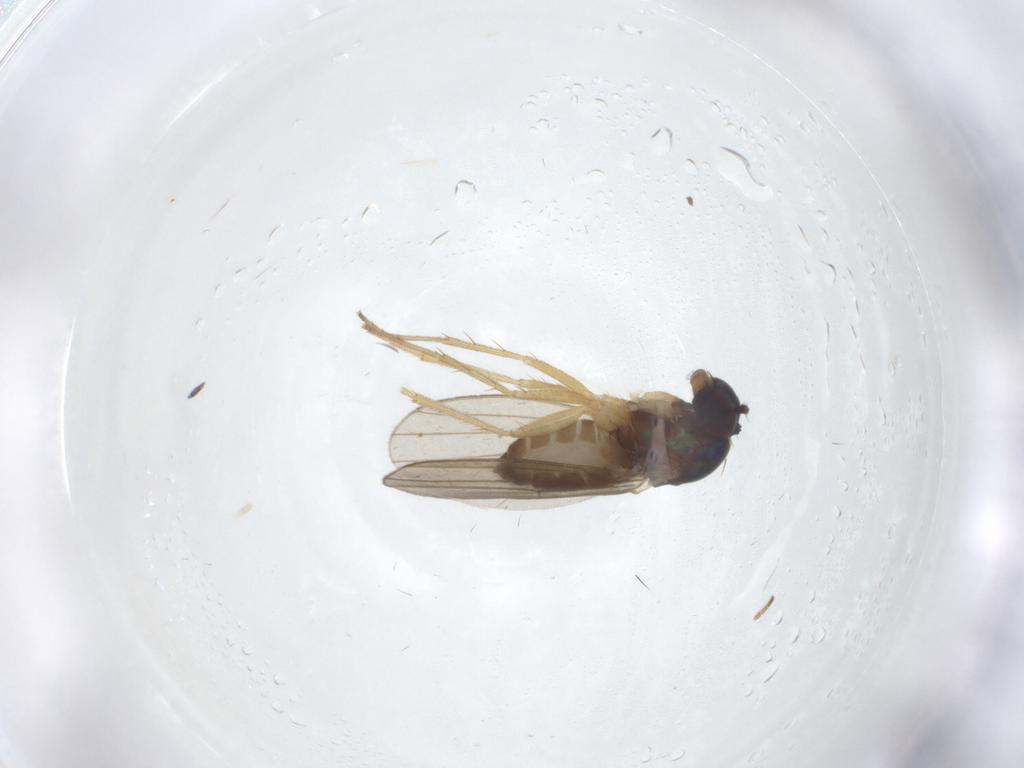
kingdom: Animalia
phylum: Arthropoda
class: Insecta
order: Diptera
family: Dolichopodidae
